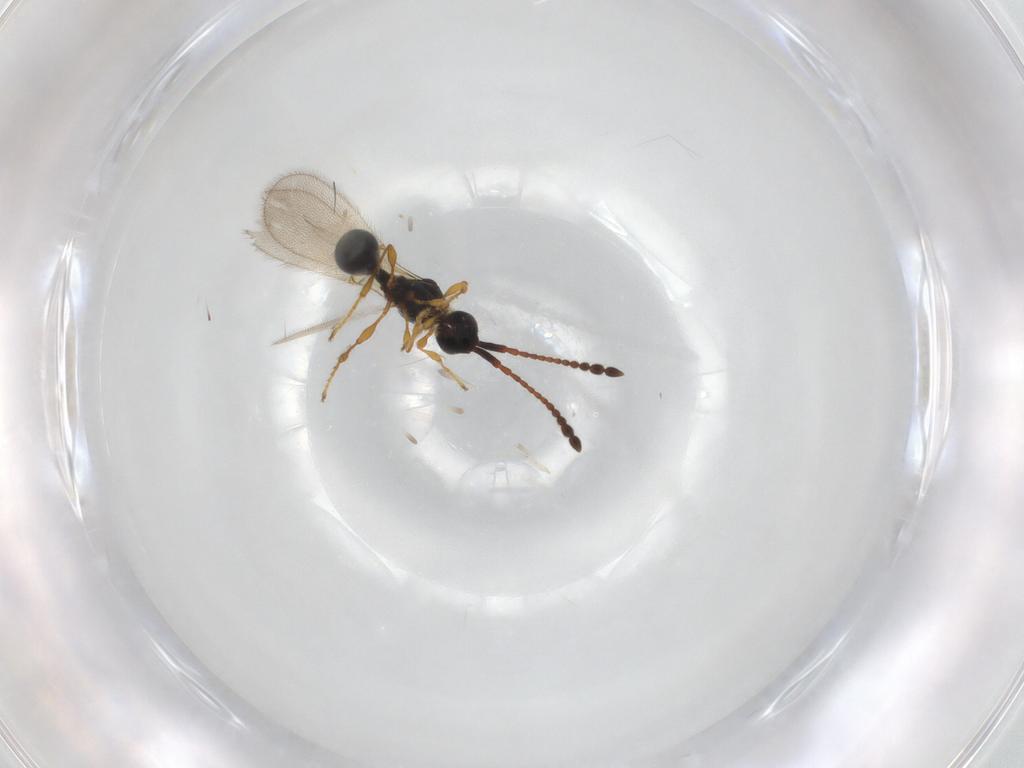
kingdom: Animalia
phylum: Arthropoda
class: Insecta
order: Hymenoptera
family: Diapriidae
